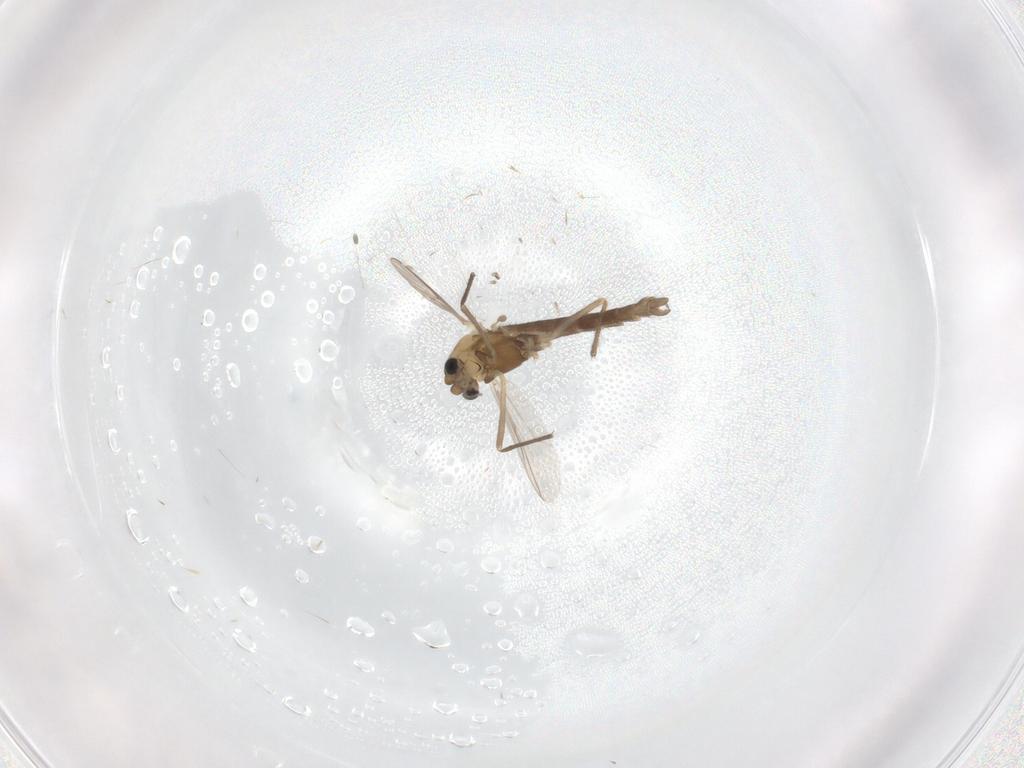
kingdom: Animalia
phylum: Arthropoda
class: Insecta
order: Diptera
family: Chironomidae
